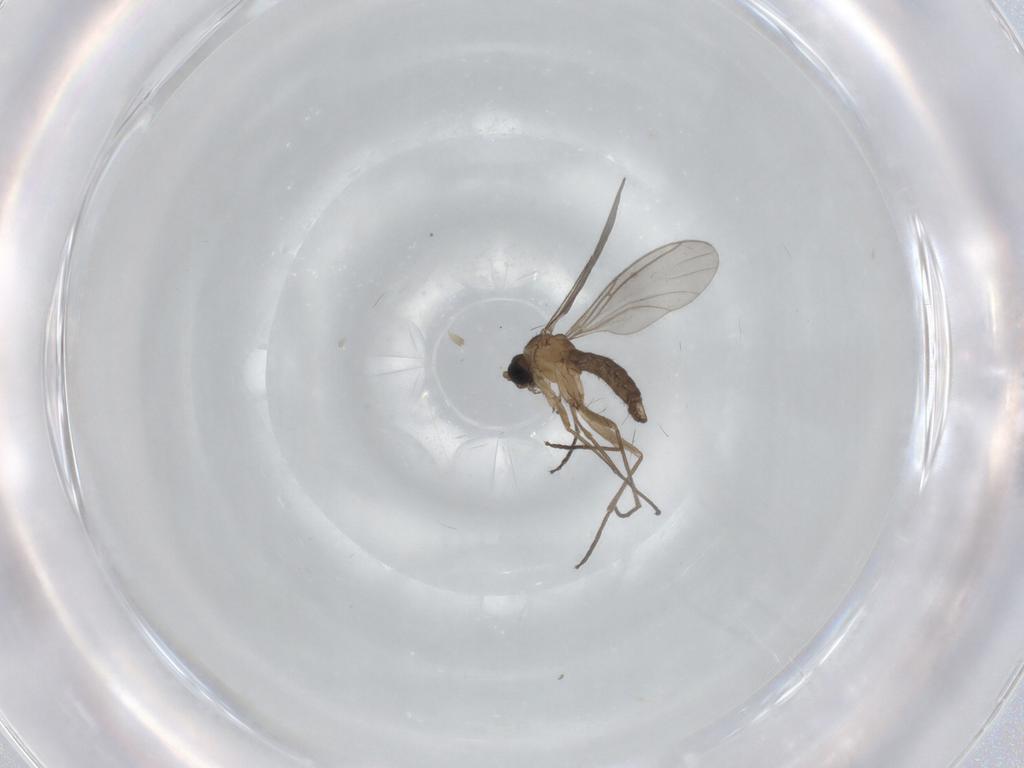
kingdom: Animalia
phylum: Arthropoda
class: Insecta
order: Diptera
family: Sciaridae
